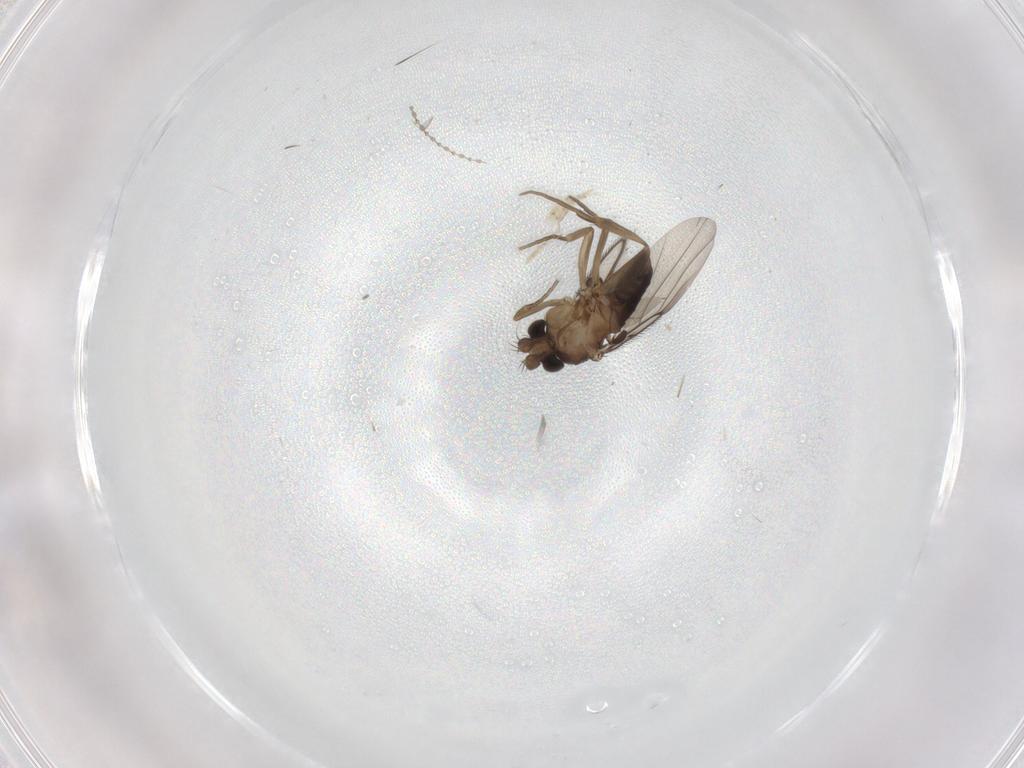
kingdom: Animalia
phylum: Arthropoda
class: Insecta
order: Diptera
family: Cecidomyiidae
